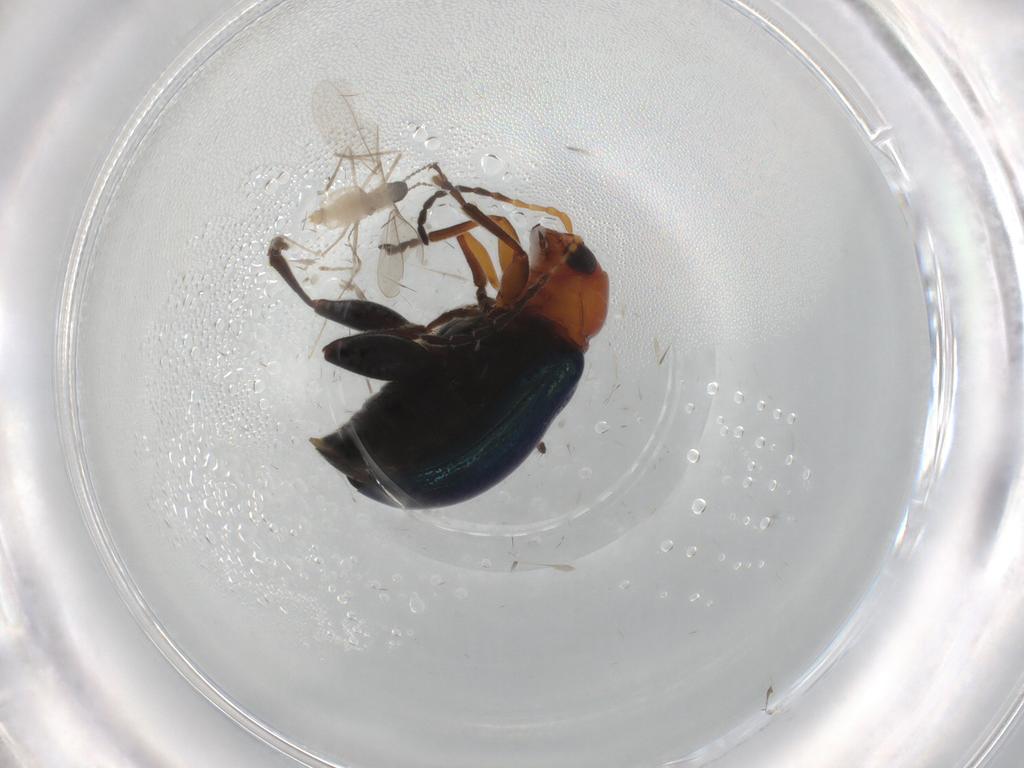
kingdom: Animalia
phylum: Arthropoda
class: Insecta
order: Coleoptera
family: Chrysomelidae
